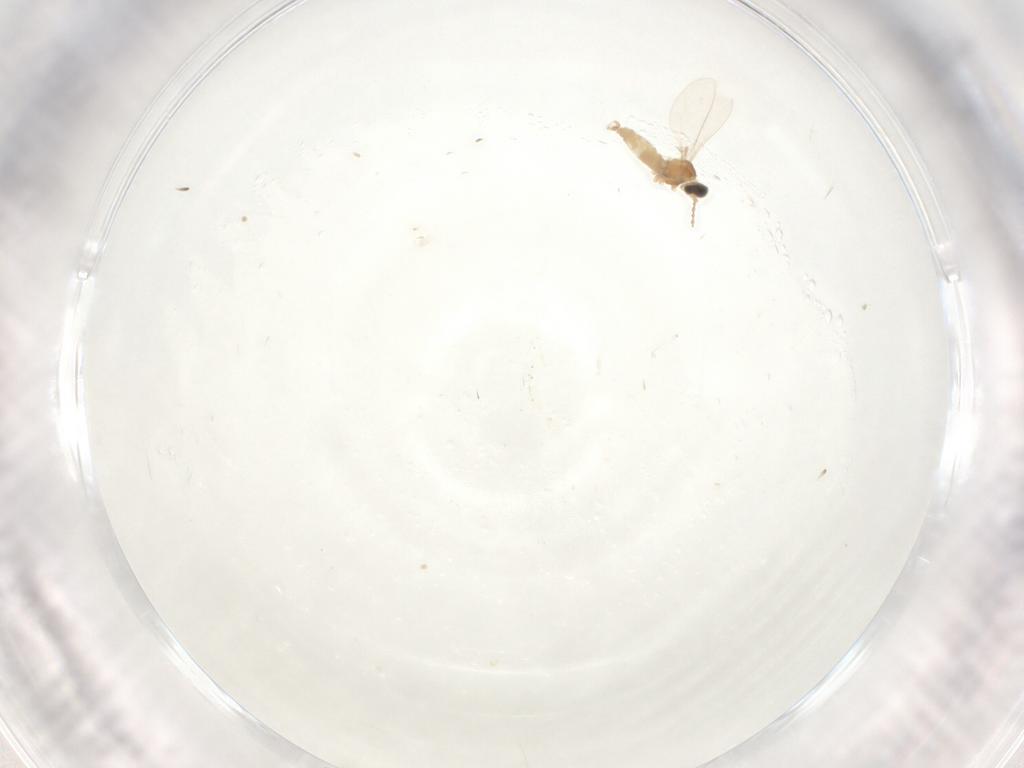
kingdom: Animalia
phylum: Arthropoda
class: Insecta
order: Diptera
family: Cecidomyiidae
